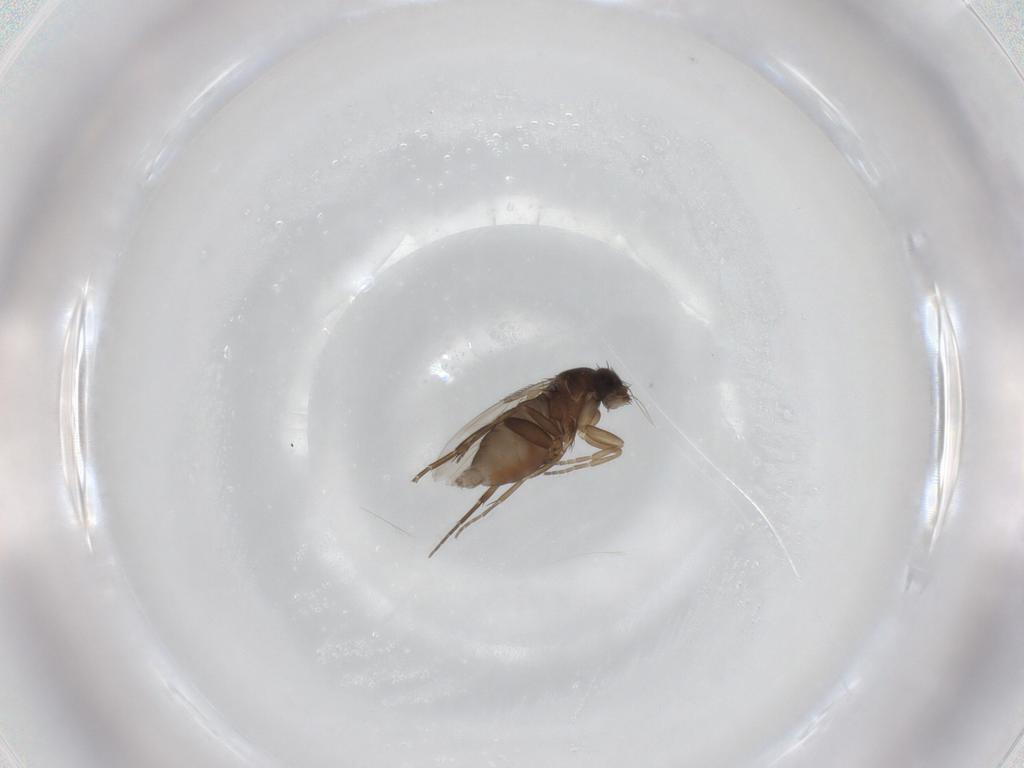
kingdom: Animalia
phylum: Arthropoda
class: Insecta
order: Diptera
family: Phoridae
